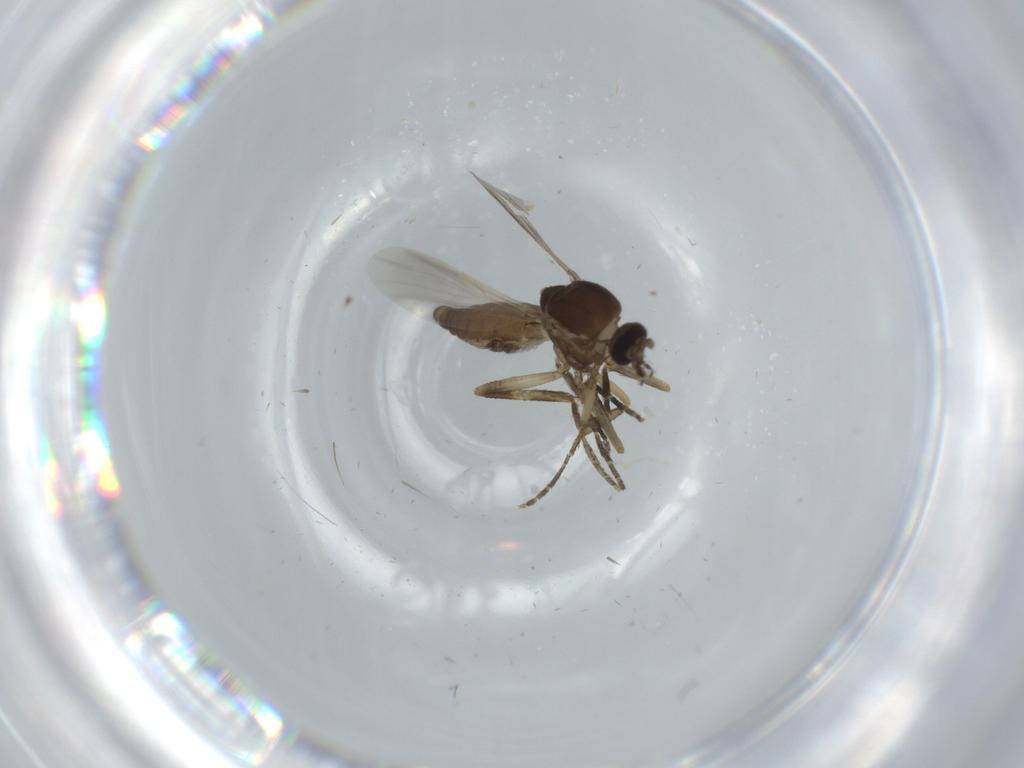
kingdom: Animalia
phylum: Arthropoda
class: Insecta
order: Diptera
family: Ceratopogonidae
